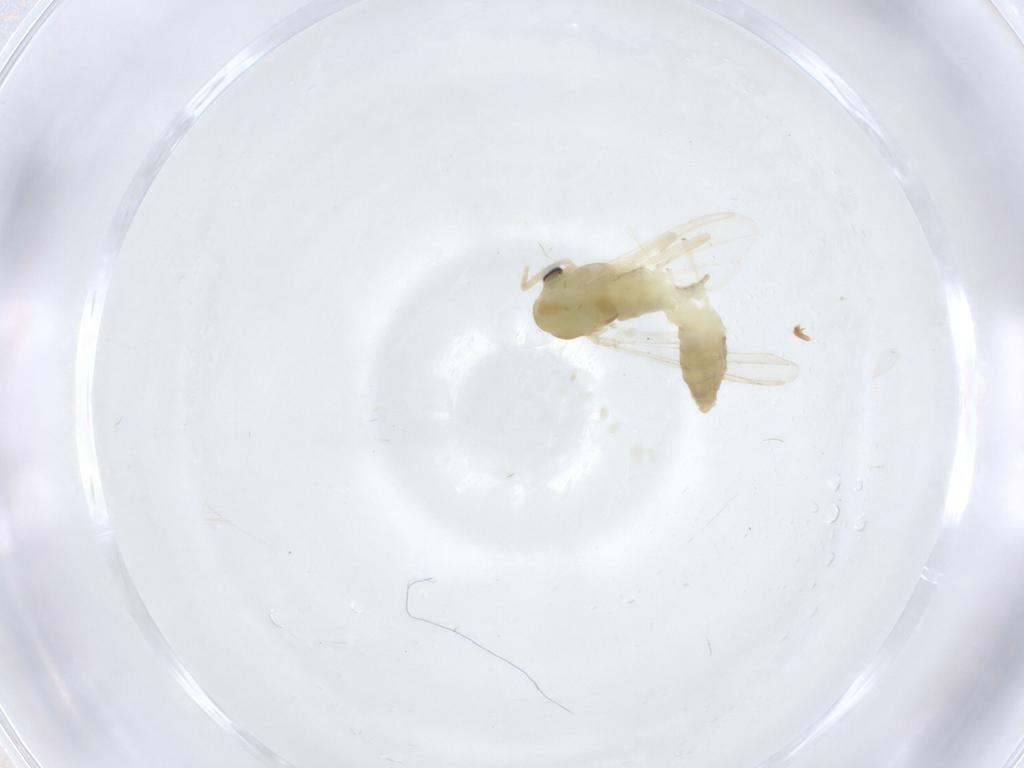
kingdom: Animalia
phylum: Arthropoda
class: Insecta
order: Diptera
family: Chironomidae
